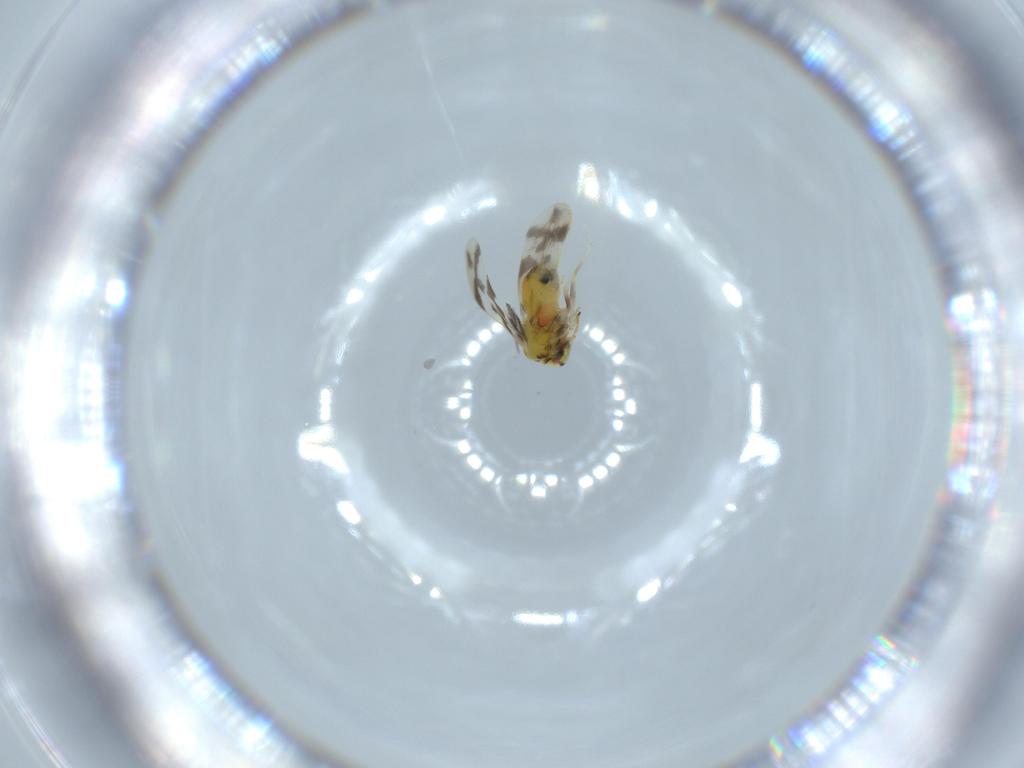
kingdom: Animalia
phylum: Arthropoda
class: Insecta
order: Hemiptera
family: Aleyrodidae
